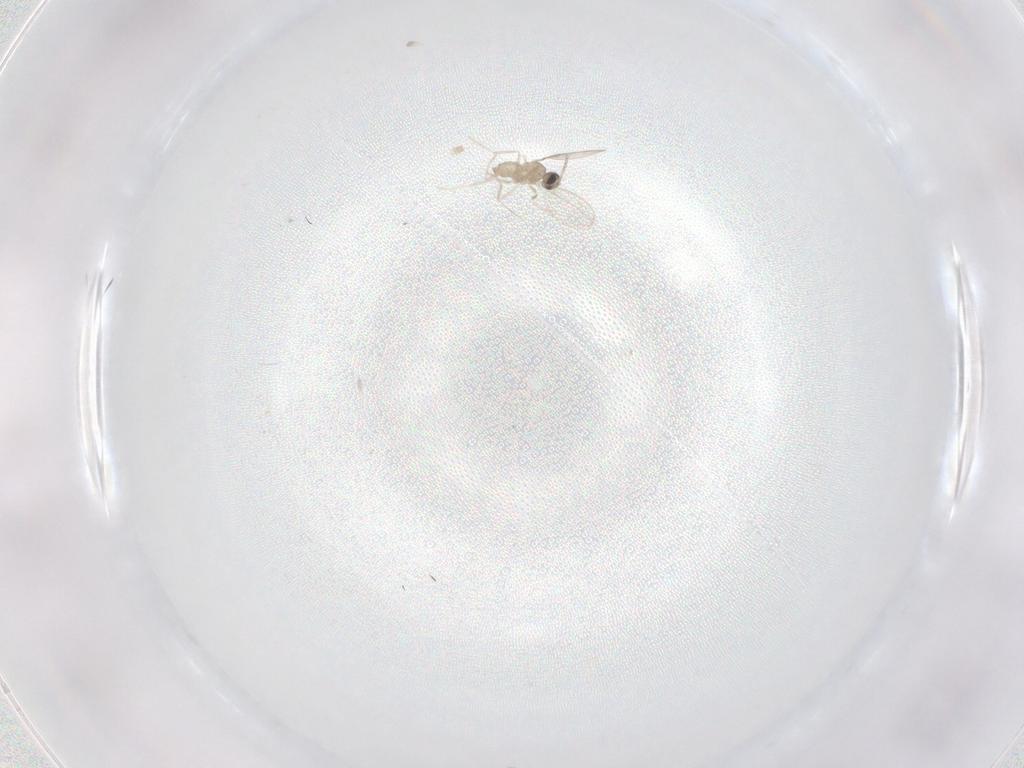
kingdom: Animalia
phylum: Arthropoda
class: Insecta
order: Diptera
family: Cecidomyiidae
